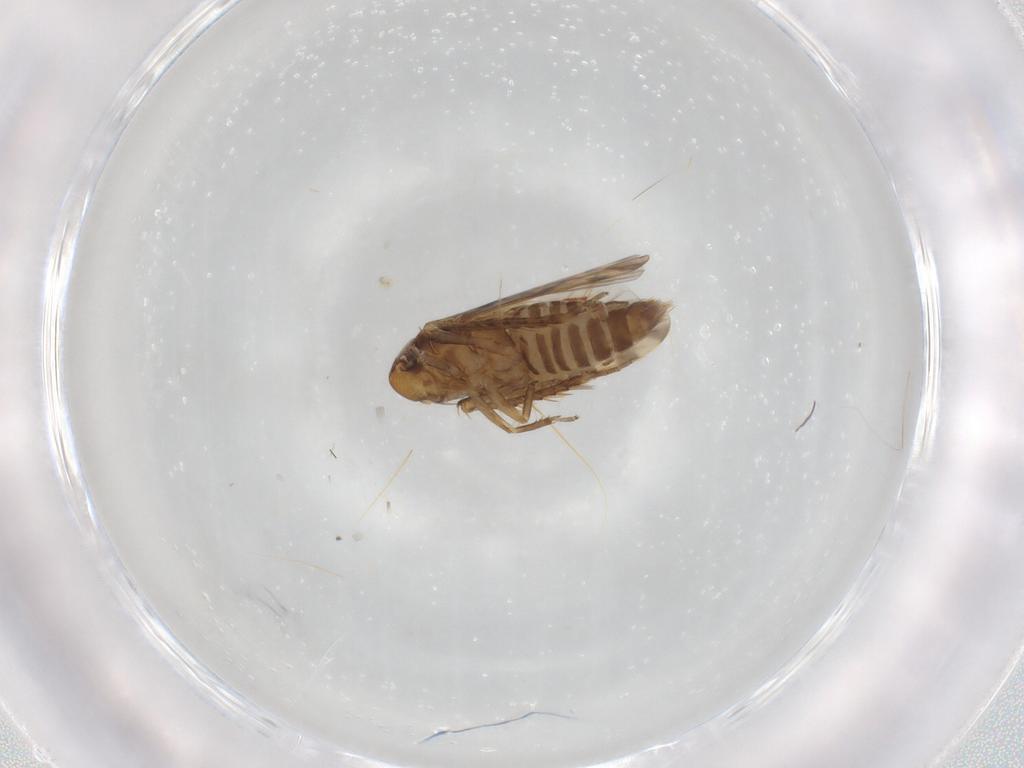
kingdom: Animalia
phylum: Arthropoda
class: Insecta
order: Hemiptera
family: Cicadellidae
